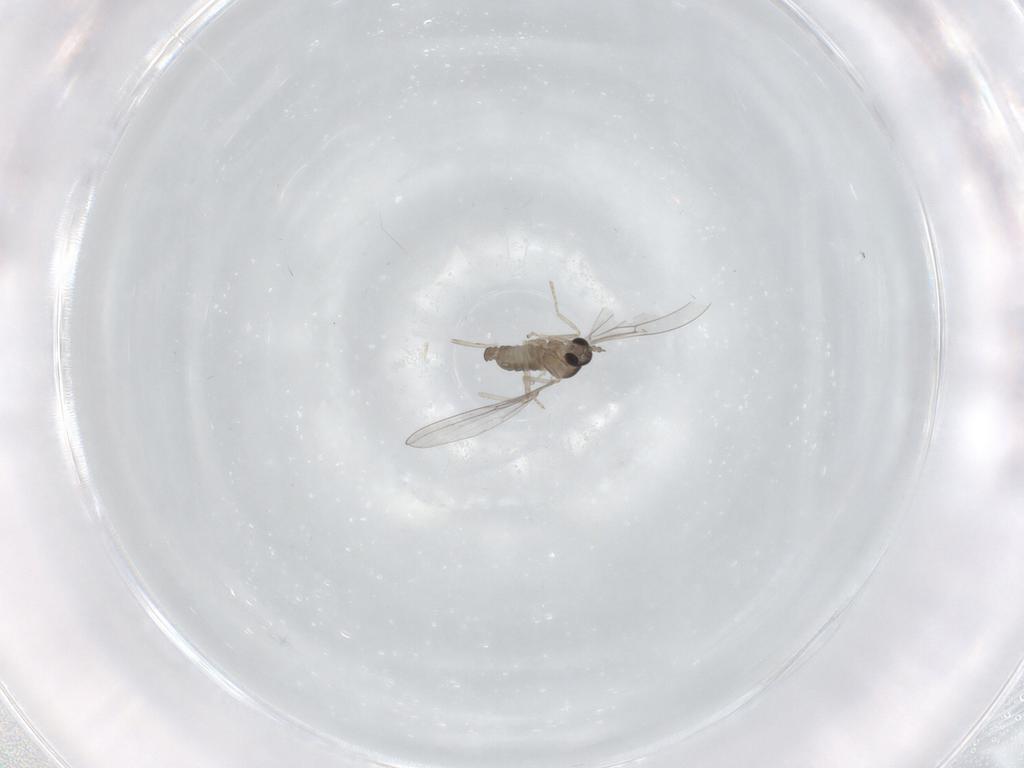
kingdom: Animalia
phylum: Arthropoda
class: Insecta
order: Diptera
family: Cecidomyiidae
